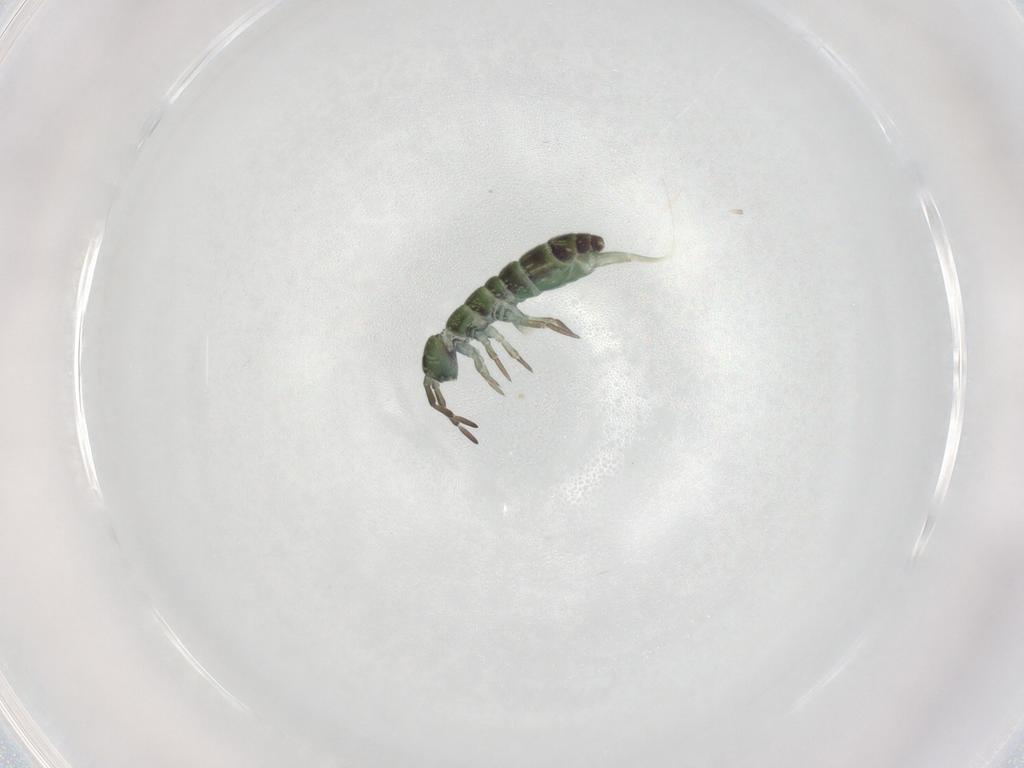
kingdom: Animalia
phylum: Arthropoda
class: Collembola
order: Entomobryomorpha
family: Isotomidae
